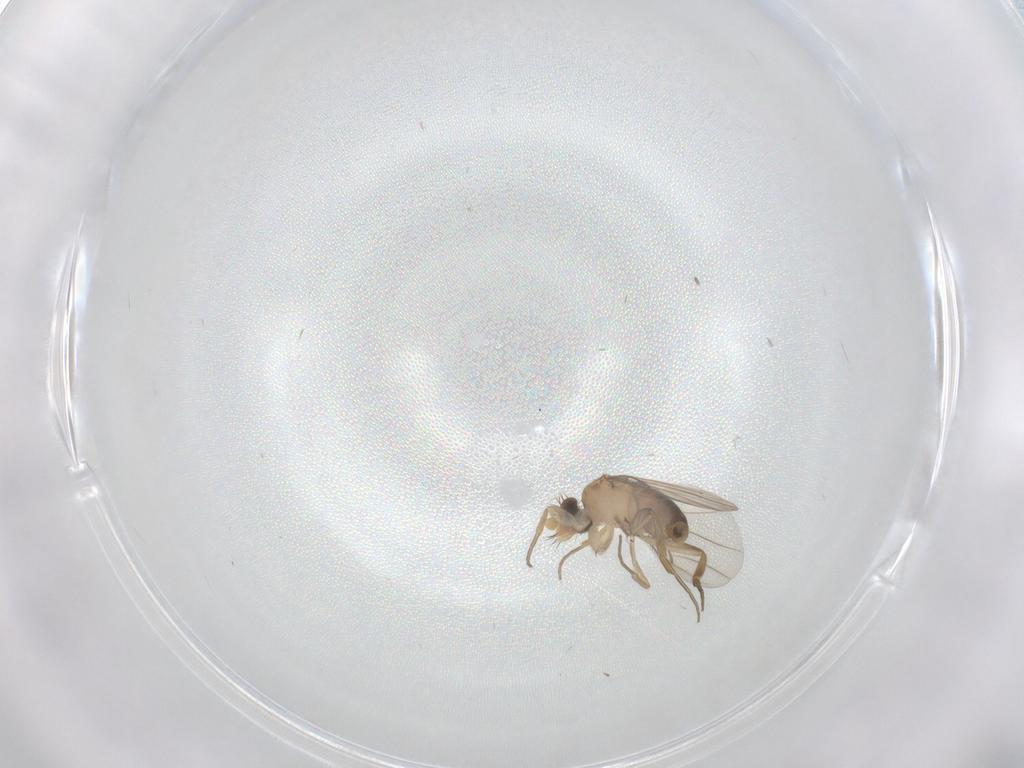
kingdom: Animalia
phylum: Arthropoda
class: Insecta
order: Diptera
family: Phoridae
